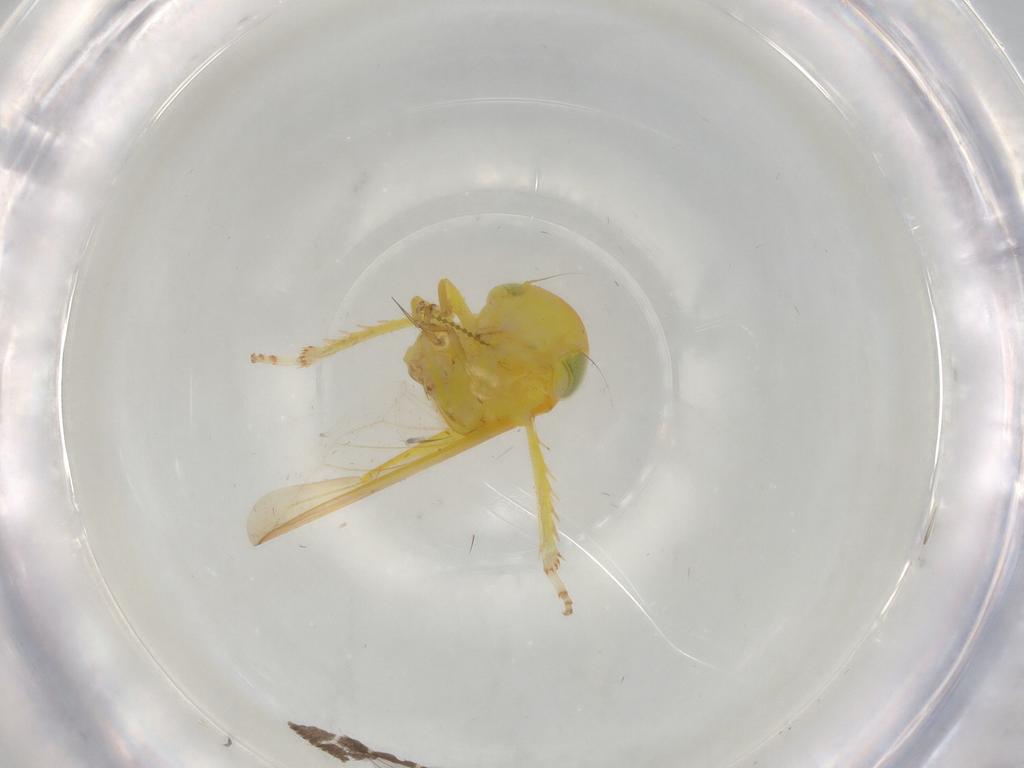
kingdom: Animalia
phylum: Arthropoda
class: Insecta
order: Hemiptera
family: Cicadellidae
